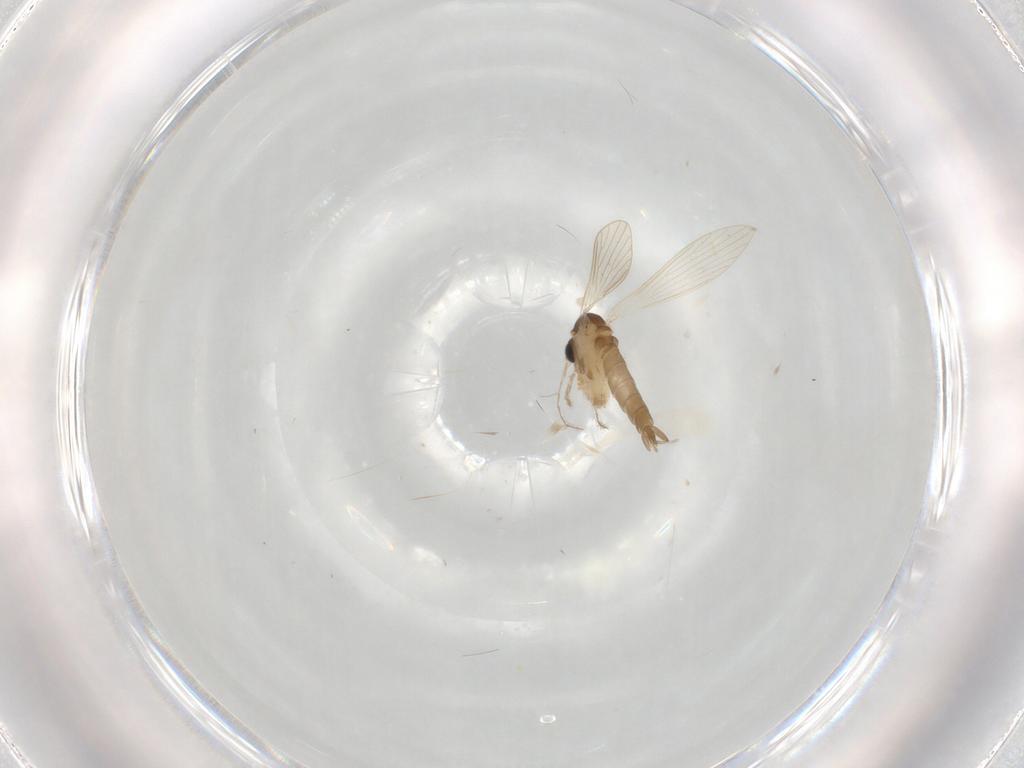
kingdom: Animalia
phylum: Arthropoda
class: Insecta
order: Diptera
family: Psychodidae
